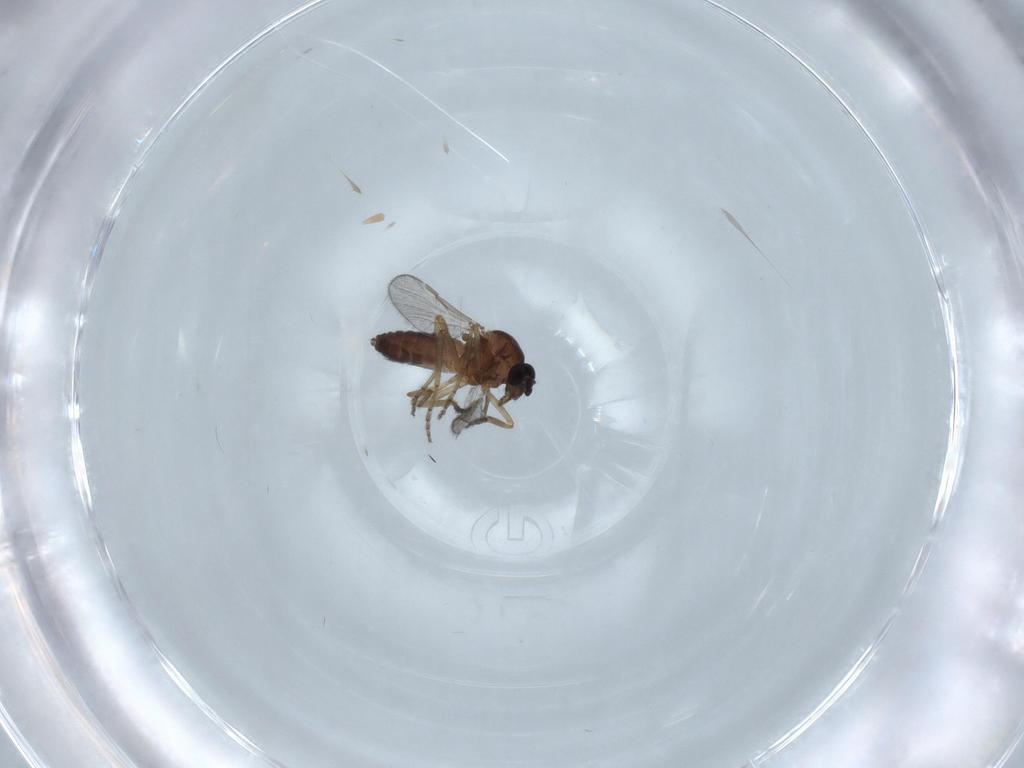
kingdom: Animalia
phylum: Arthropoda
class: Insecta
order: Diptera
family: Ceratopogonidae
